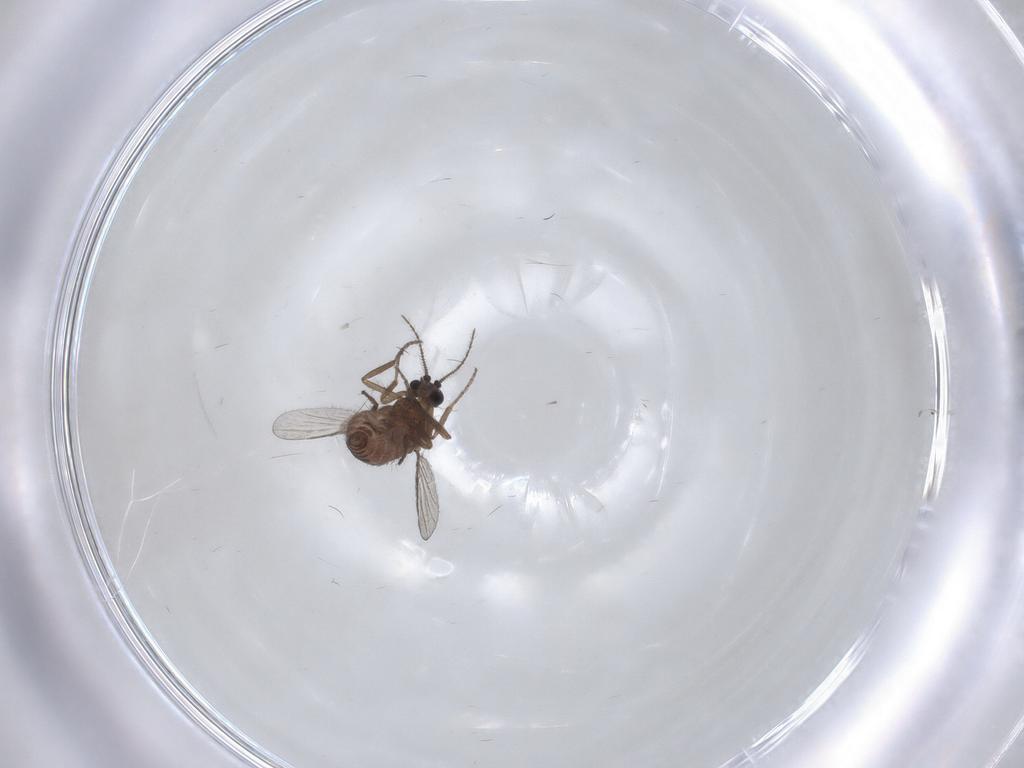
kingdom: Animalia
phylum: Arthropoda
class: Insecta
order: Diptera
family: Psychodidae
